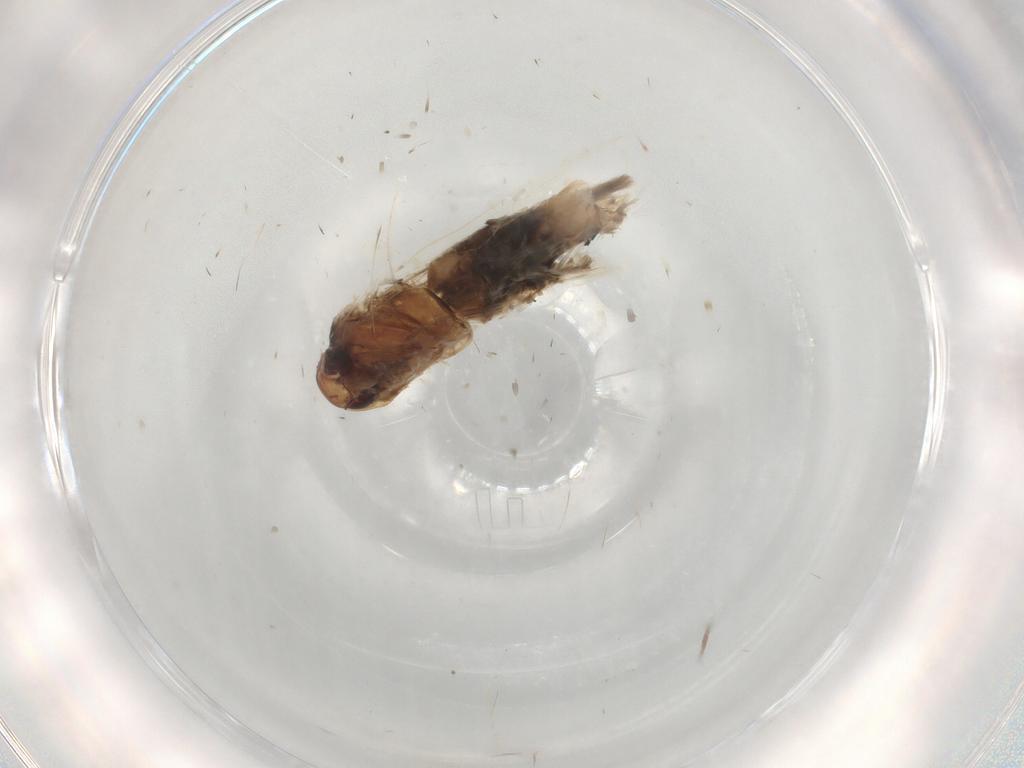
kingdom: Animalia
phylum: Arthropoda
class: Insecta
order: Lepidoptera
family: Cosmopterigidae
